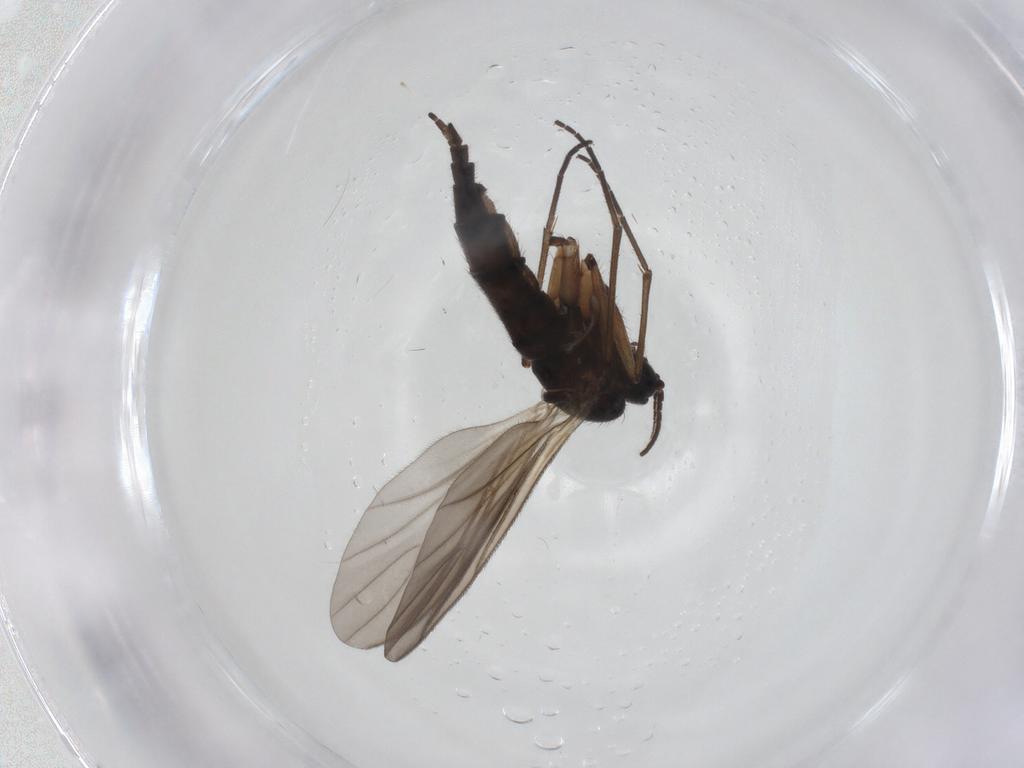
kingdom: Animalia
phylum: Arthropoda
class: Insecta
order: Diptera
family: Sciaridae
